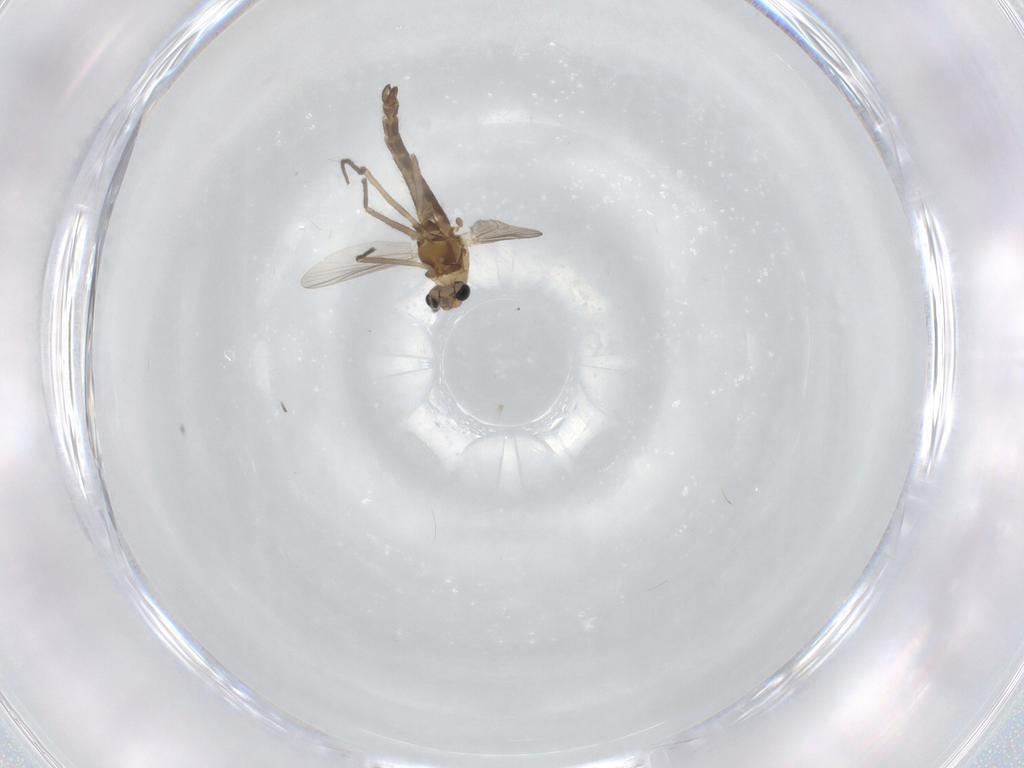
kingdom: Animalia
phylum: Arthropoda
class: Insecta
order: Diptera
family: Chironomidae
